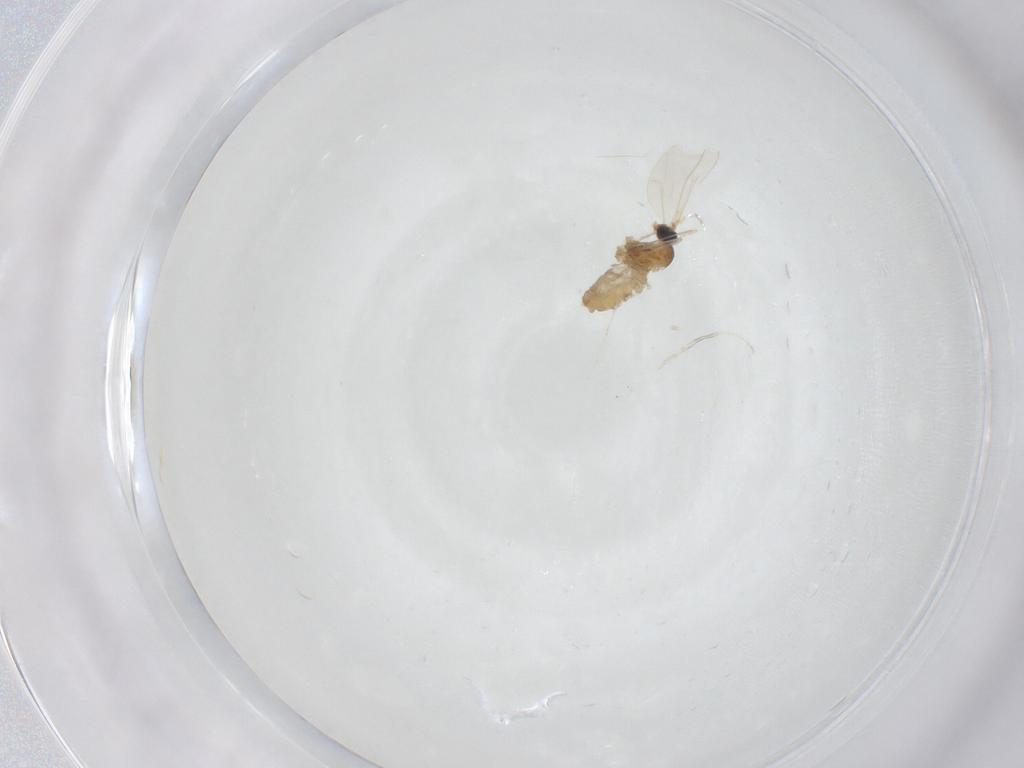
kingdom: Animalia
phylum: Arthropoda
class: Insecta
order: Diptera
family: Cecidomyiidae
